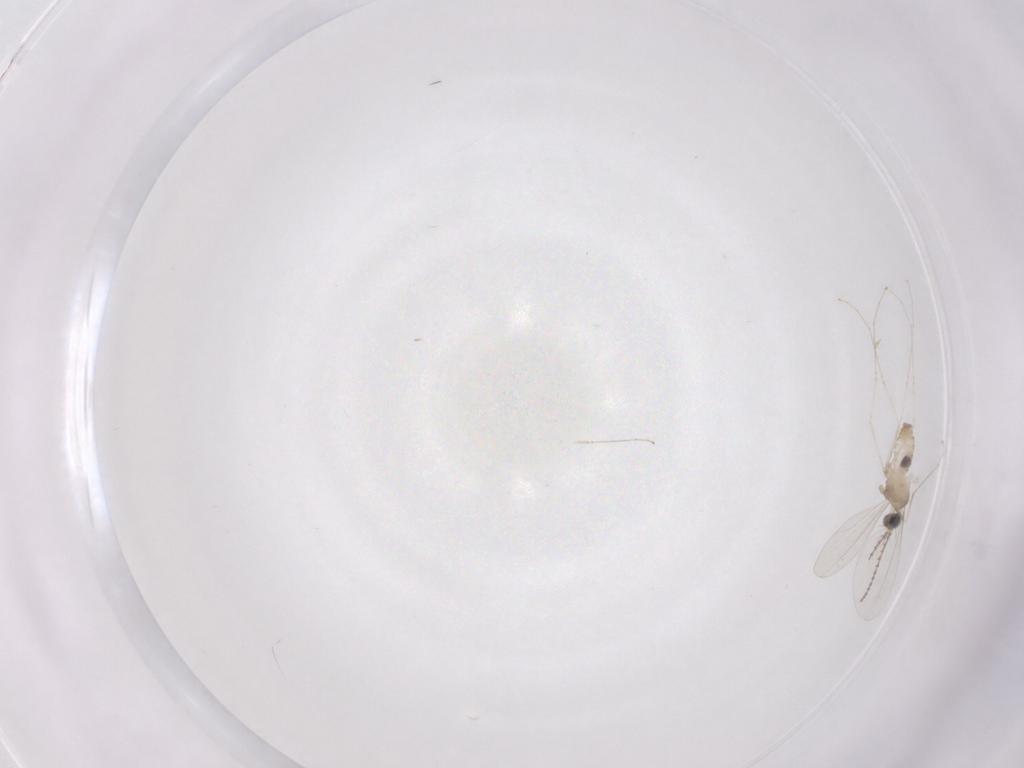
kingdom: Animalia
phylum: Arthropoda
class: Insecta
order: Diptera
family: Cecidomyiidae
